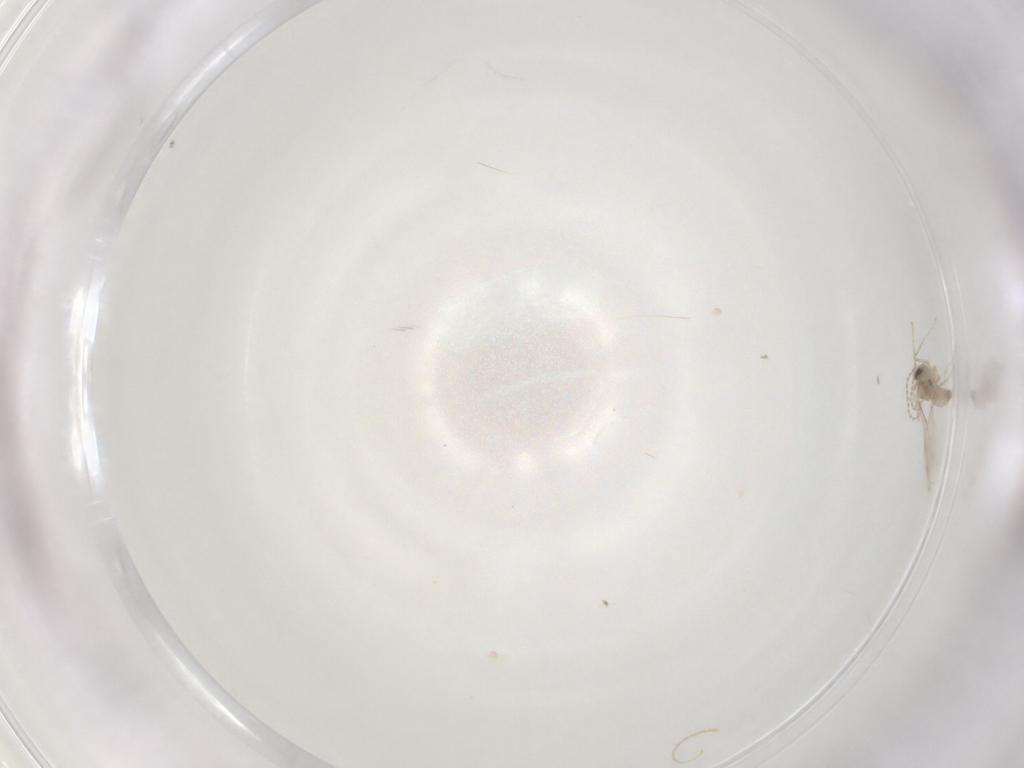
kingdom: Animalia
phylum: Arthropoda
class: Insecta
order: Diptera
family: Cecidomyiidae
